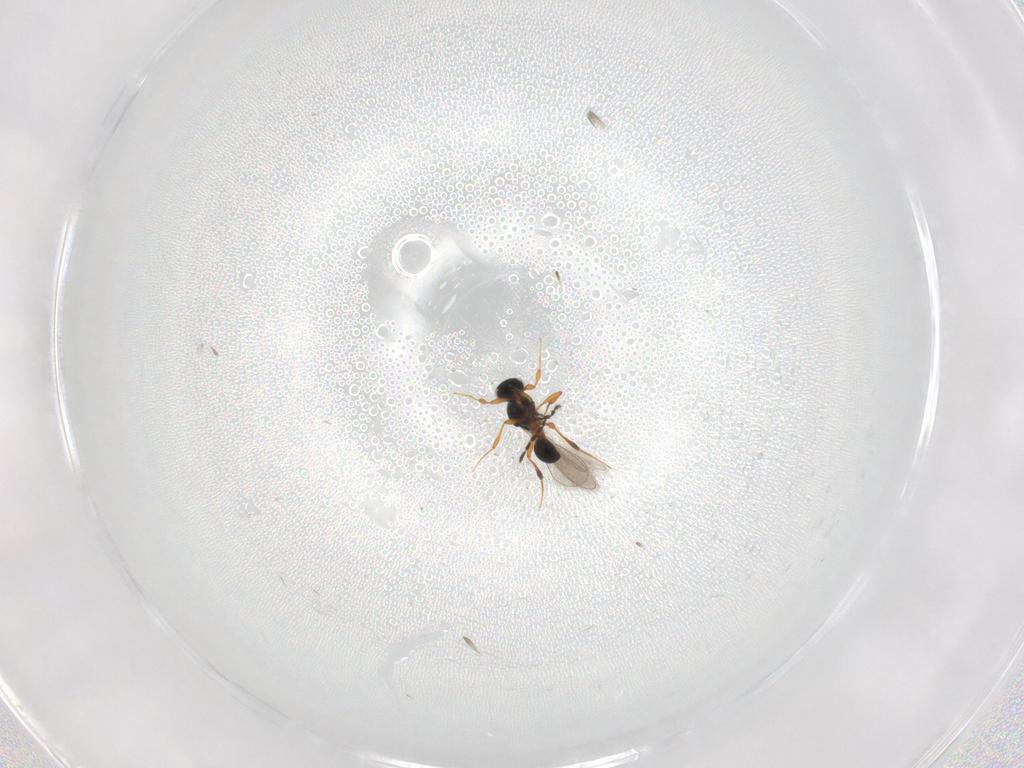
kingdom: Animalia
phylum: Arthropoda
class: Insecta
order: Hymenoptera
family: Platygastridae
